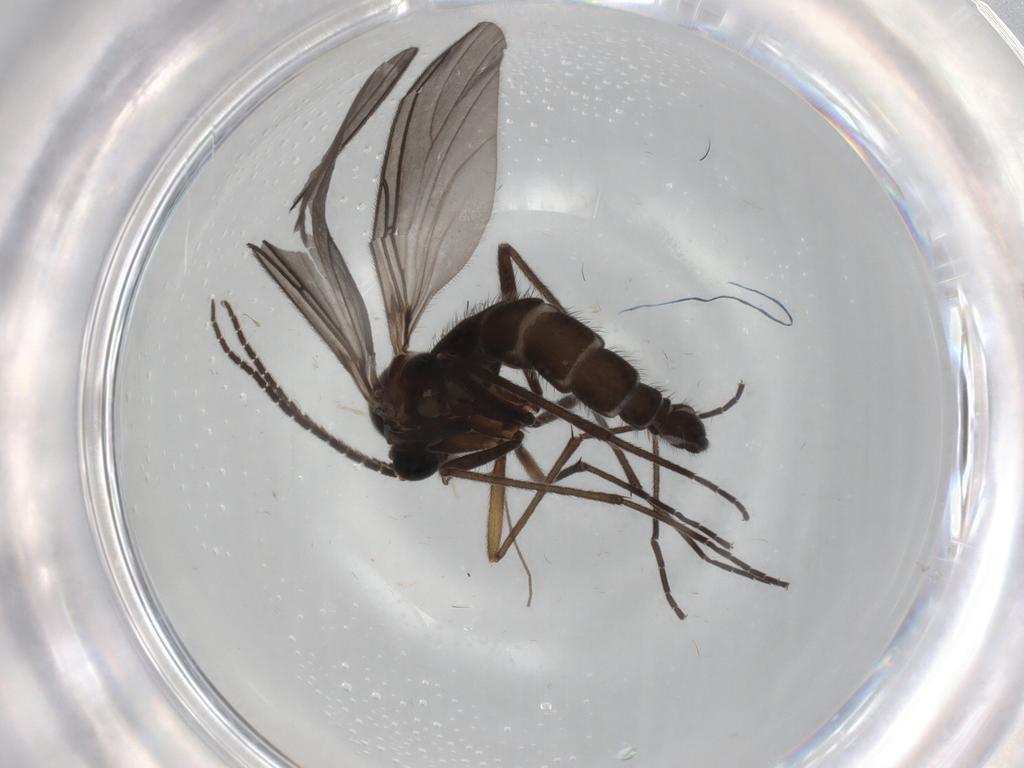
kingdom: Animalia
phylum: Arthropoda
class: Insecta
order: Diptera
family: Sciaridae
